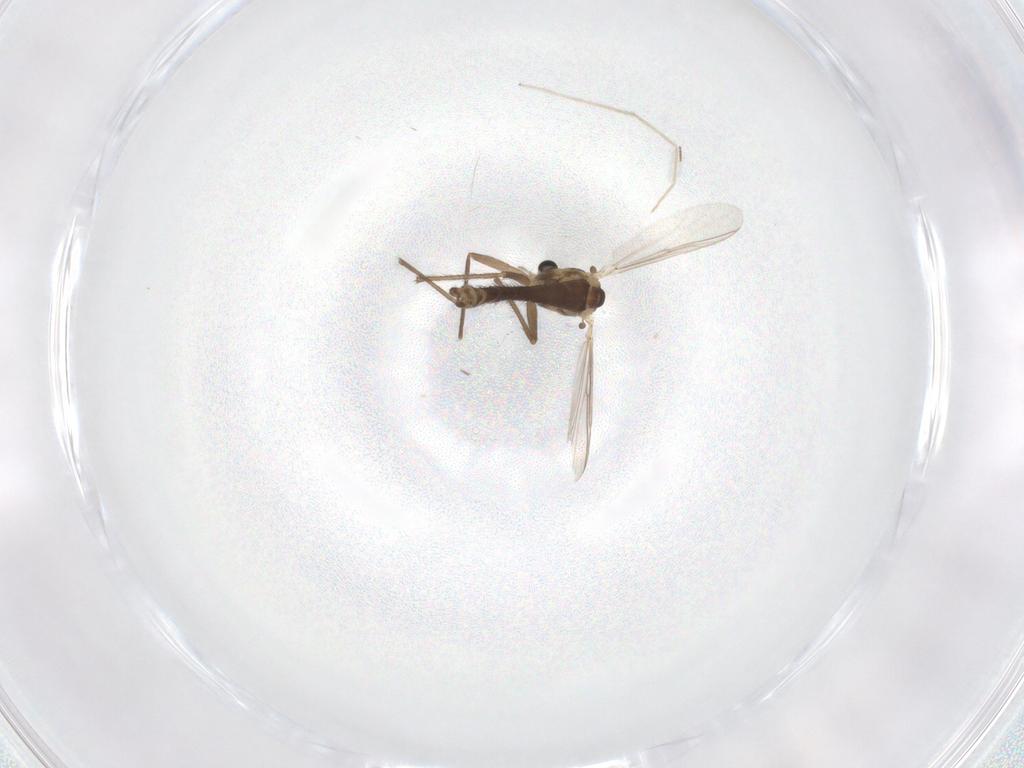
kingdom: Animalia
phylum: Arthropoda
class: Insecta
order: Diptera
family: Chironomidae
